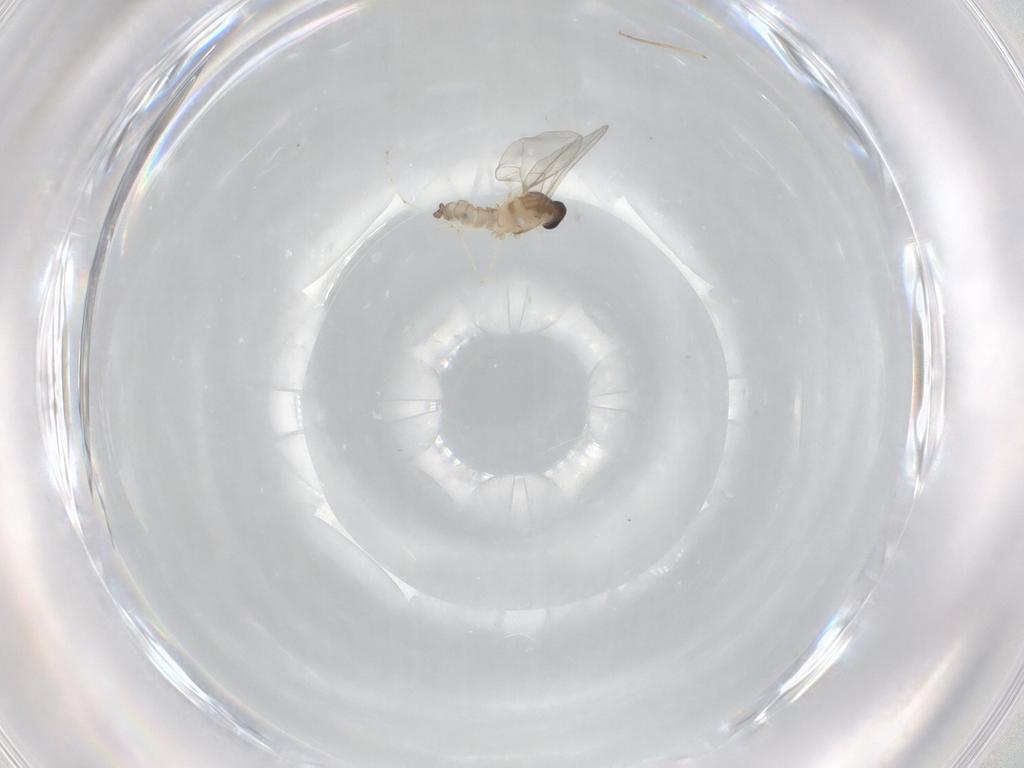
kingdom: Animalia
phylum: Arthropoda
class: Insecta
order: Diptera
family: Cecidomyiidae
